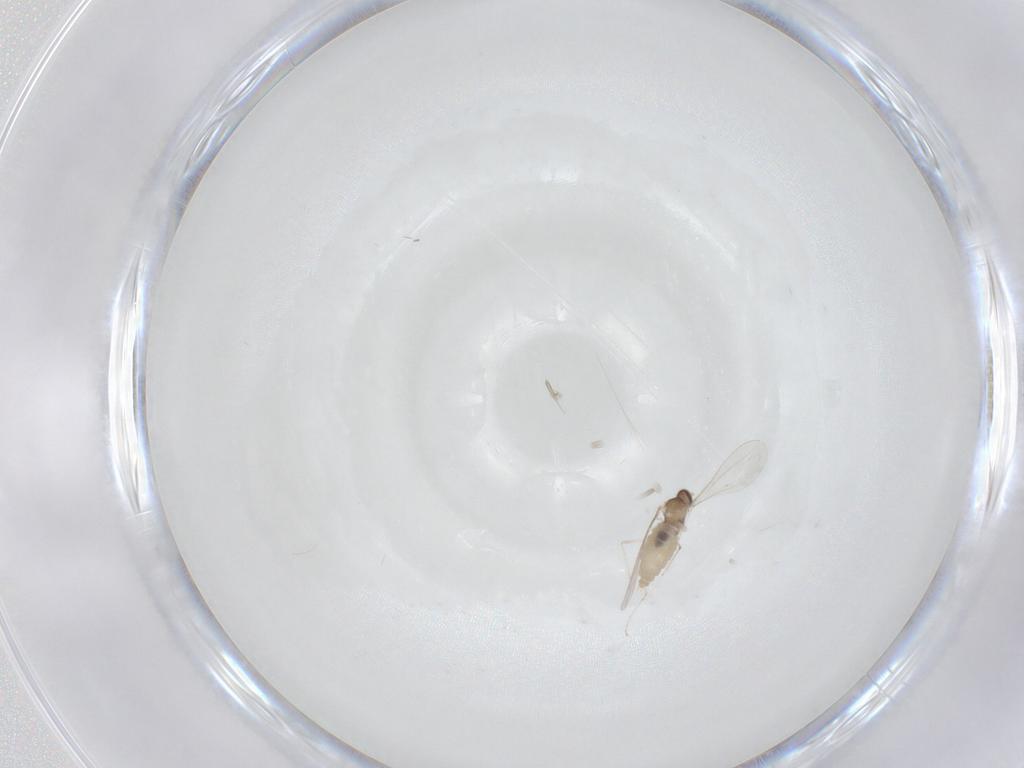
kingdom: Animalia
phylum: Arthropoda
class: Insecta
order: Diptera
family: Cecidomyiidae
